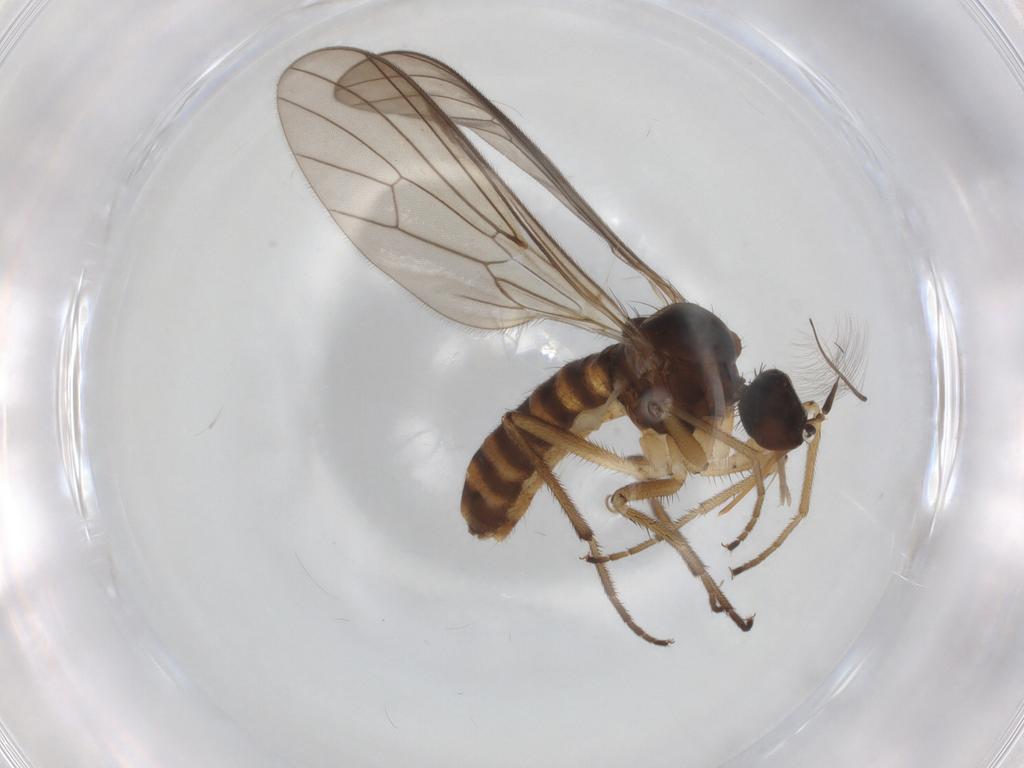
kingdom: Animalia
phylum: Arthropoda
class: Insecta
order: Diptera
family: Empididae
